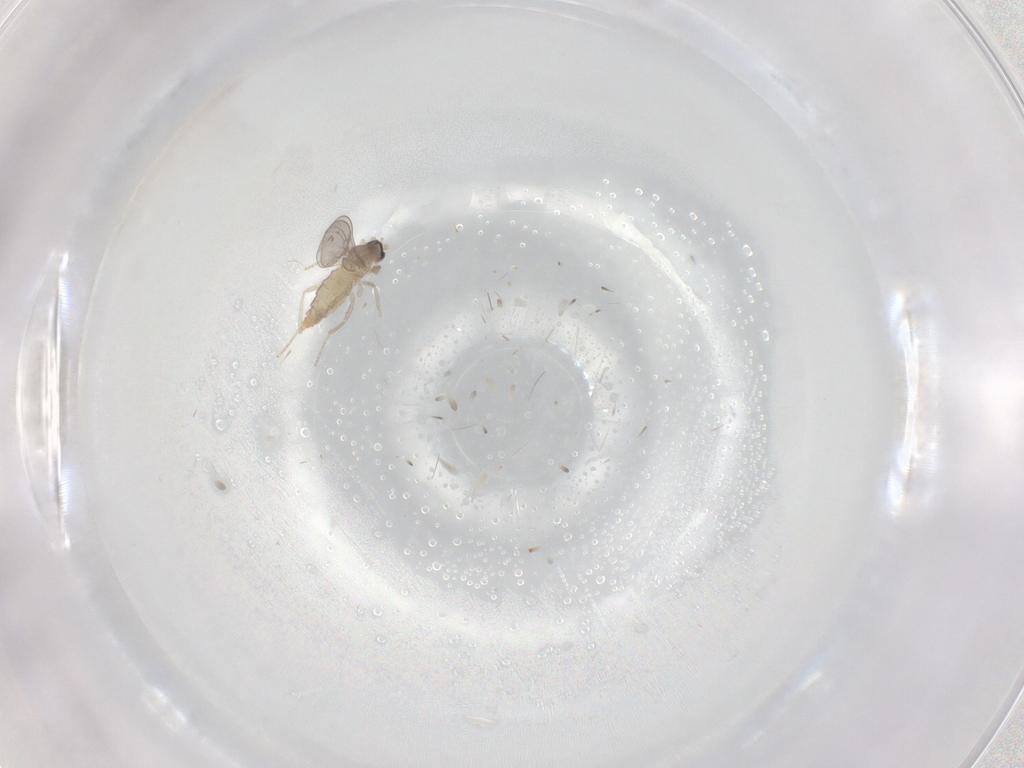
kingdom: Animalia
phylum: Arthropoda
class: Insecta
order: Diptera
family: Cecidomyiidae
